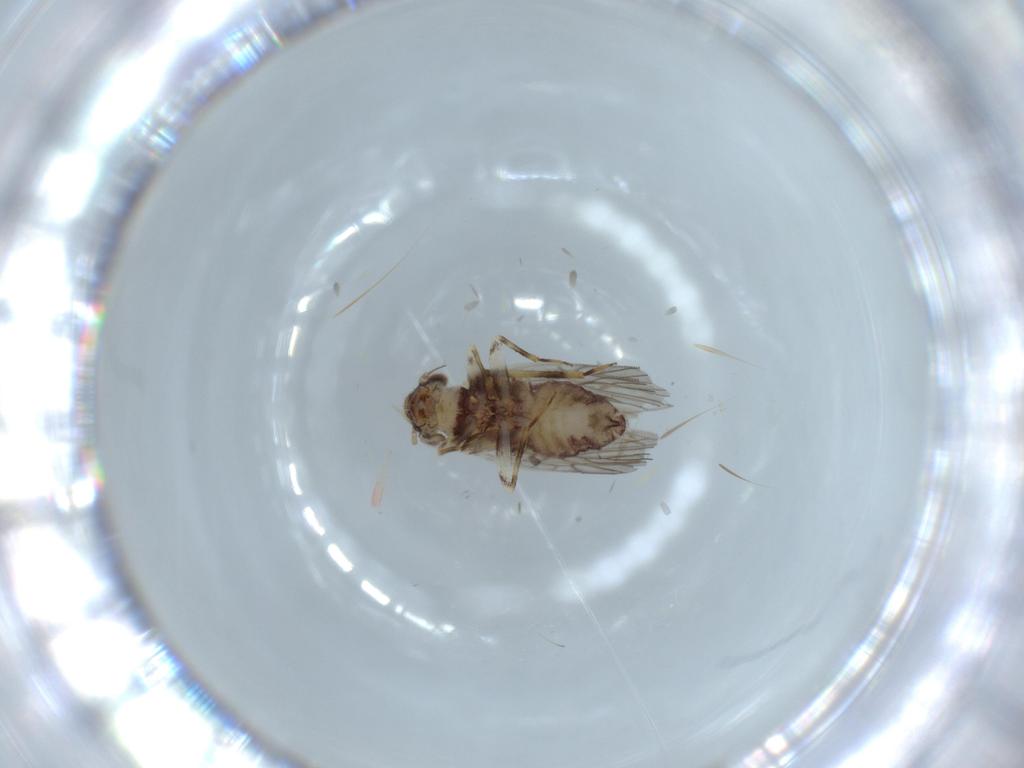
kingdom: Animalia
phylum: Arthropoda
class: Insecta
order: Psocodea
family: Lepidopsocidae
